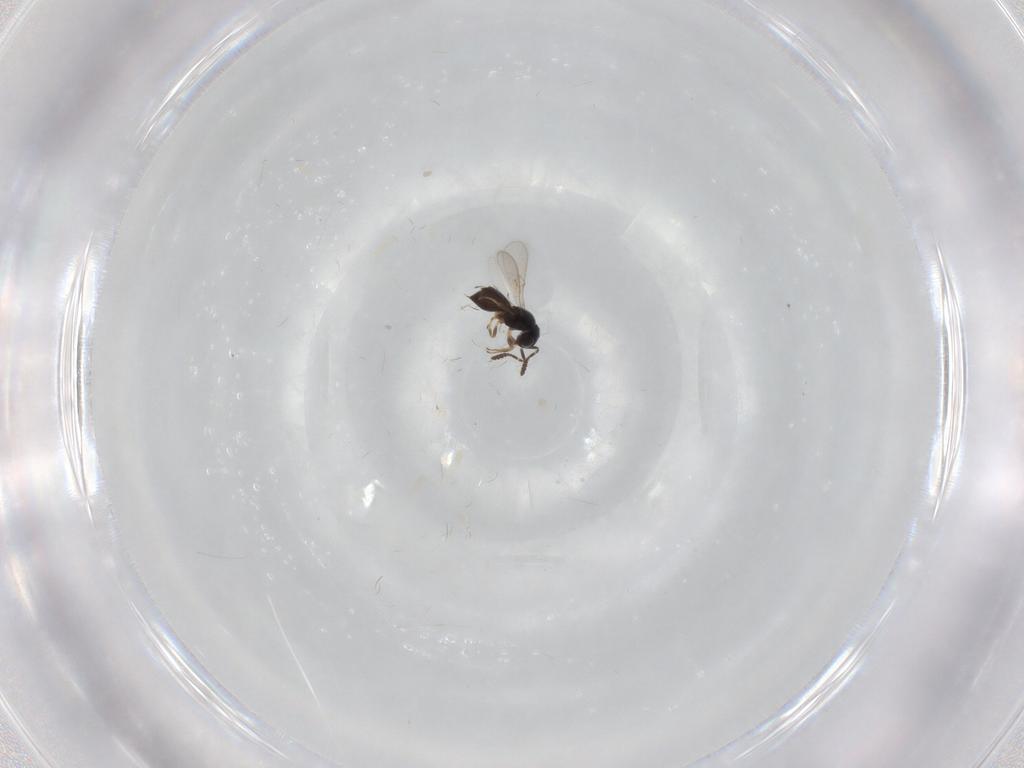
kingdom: Animalia
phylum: Arthropoda
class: Insecta
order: Hymenoptera
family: Scelionidae
